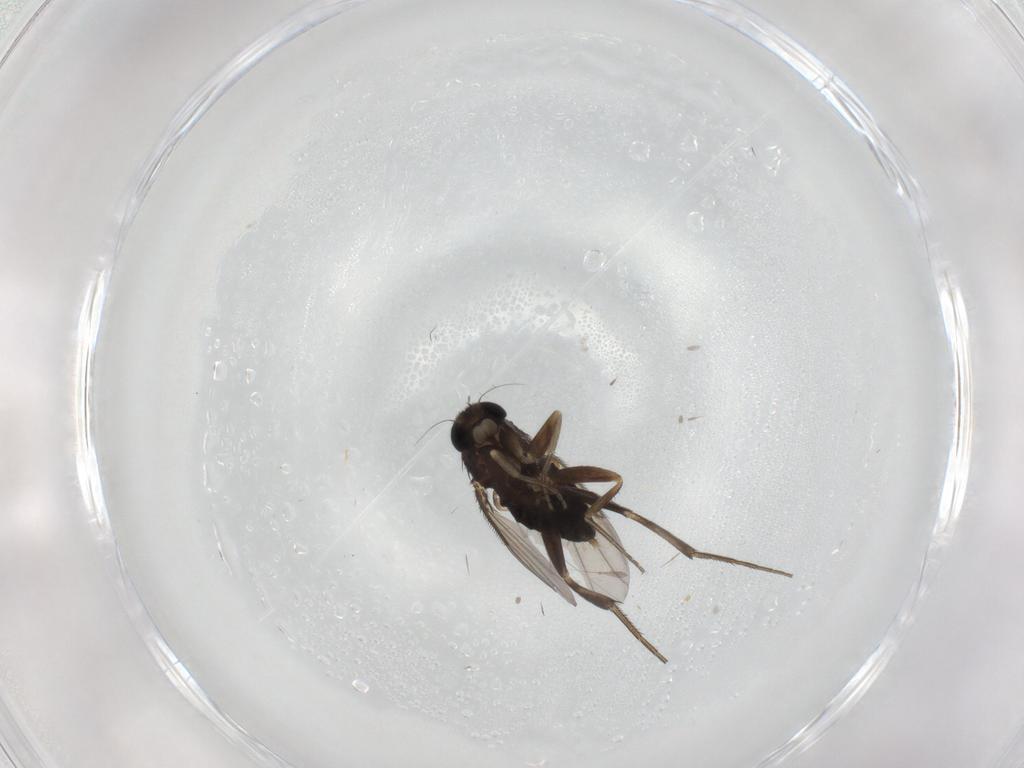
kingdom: Animalia
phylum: Arthropoda
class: Insecta
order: Diptera
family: Phoridae
